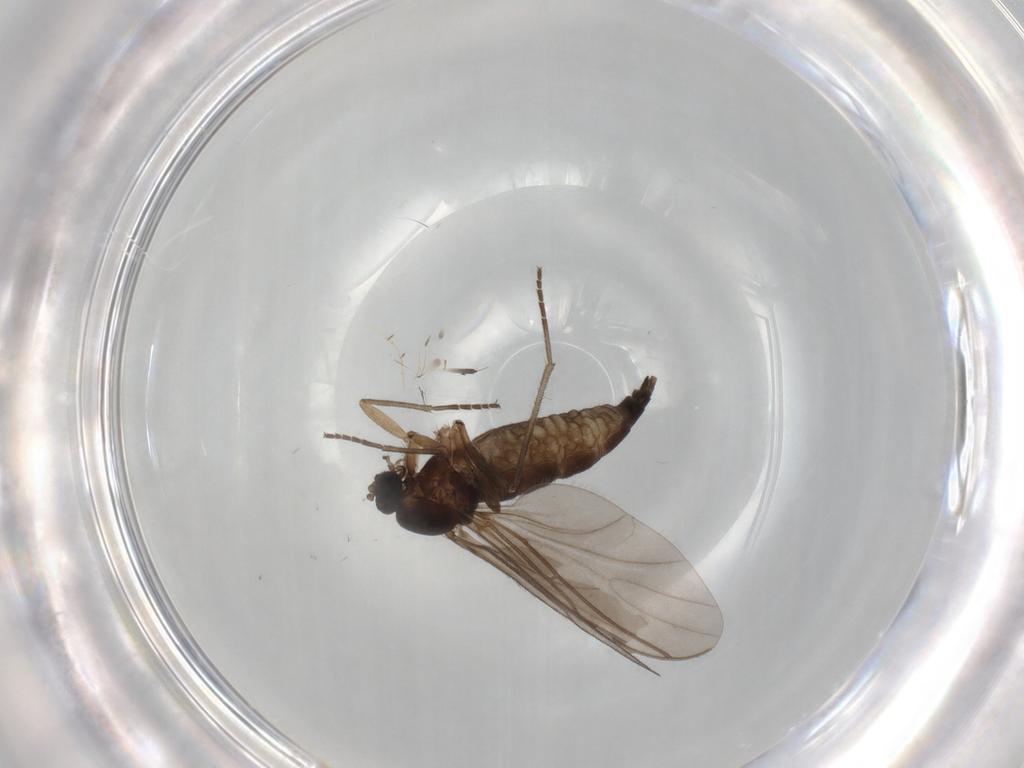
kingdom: Animalia
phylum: Arthropoda
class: Insecta
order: Diptera
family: Sciaridae
